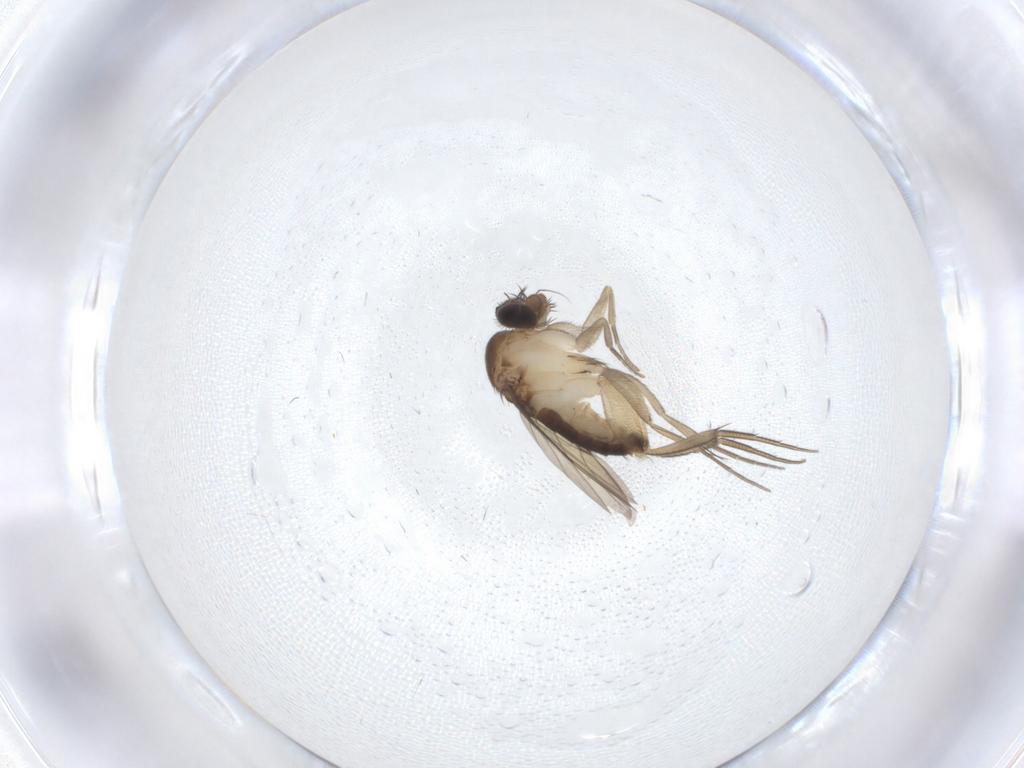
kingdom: Animalia
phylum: Arthropoda
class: Insecta
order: Diptera
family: Phoridae
